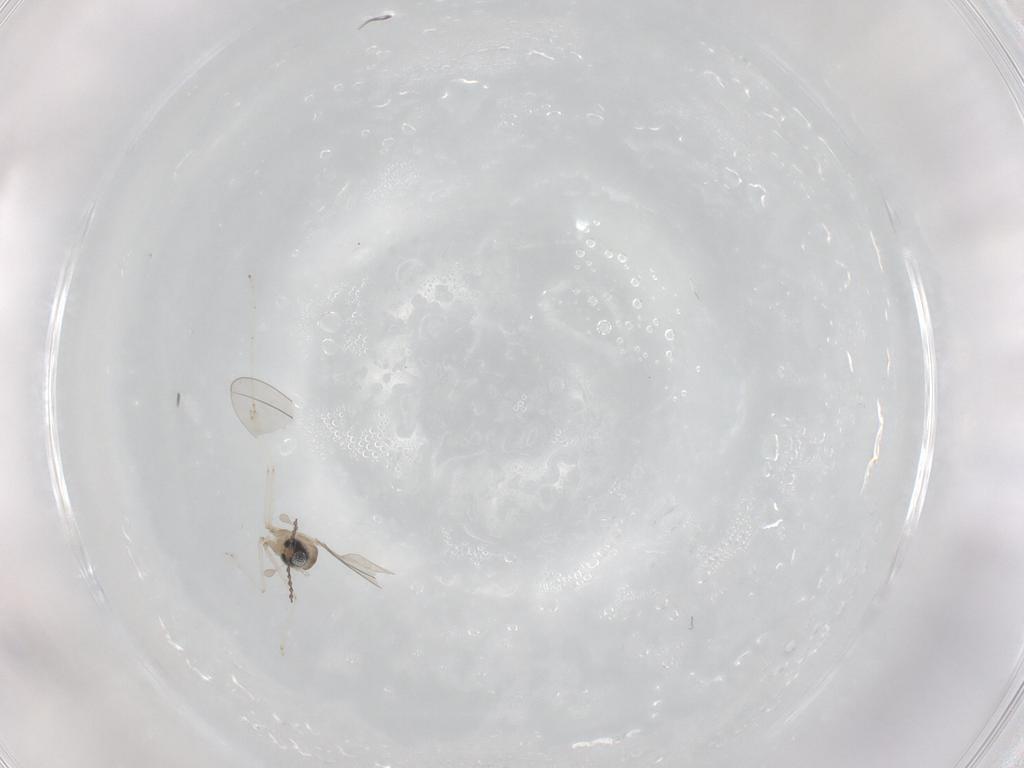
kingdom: Animalia
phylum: Arthropoda
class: Insecta
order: Diptera
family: Cecidomyiidae
